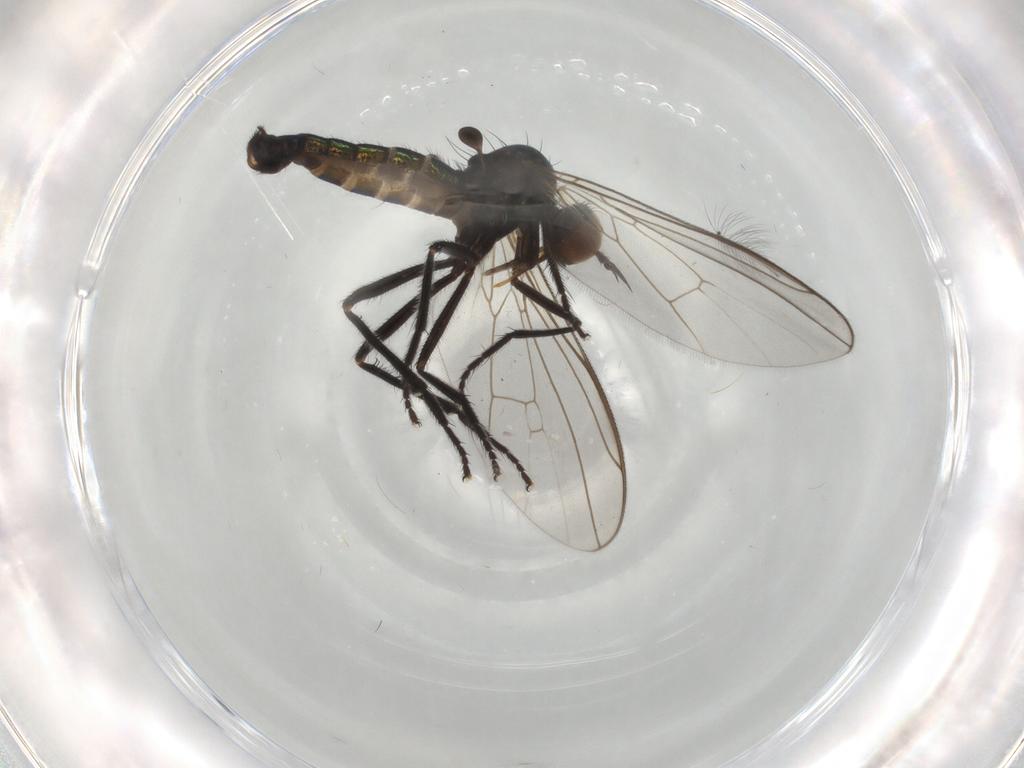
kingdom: Animalia
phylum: Arthropoda
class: Insecta
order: Diptera
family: Empididae
